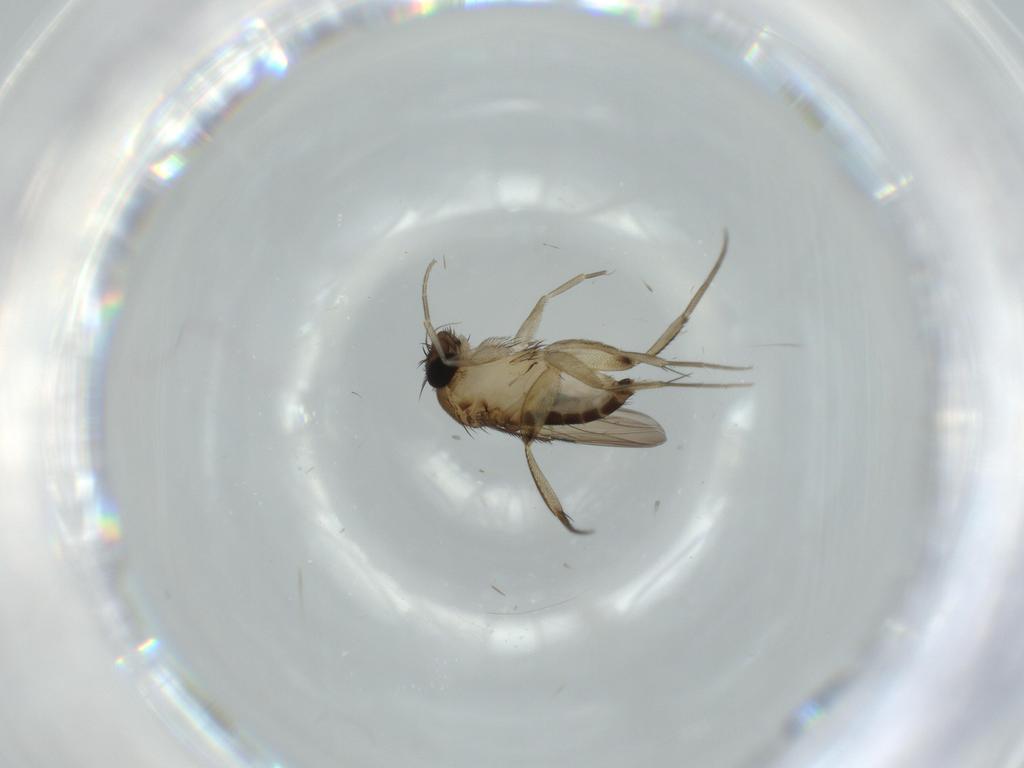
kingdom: Animalia
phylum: Arthropoda
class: Insecta
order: Diptera
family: Phoridae
